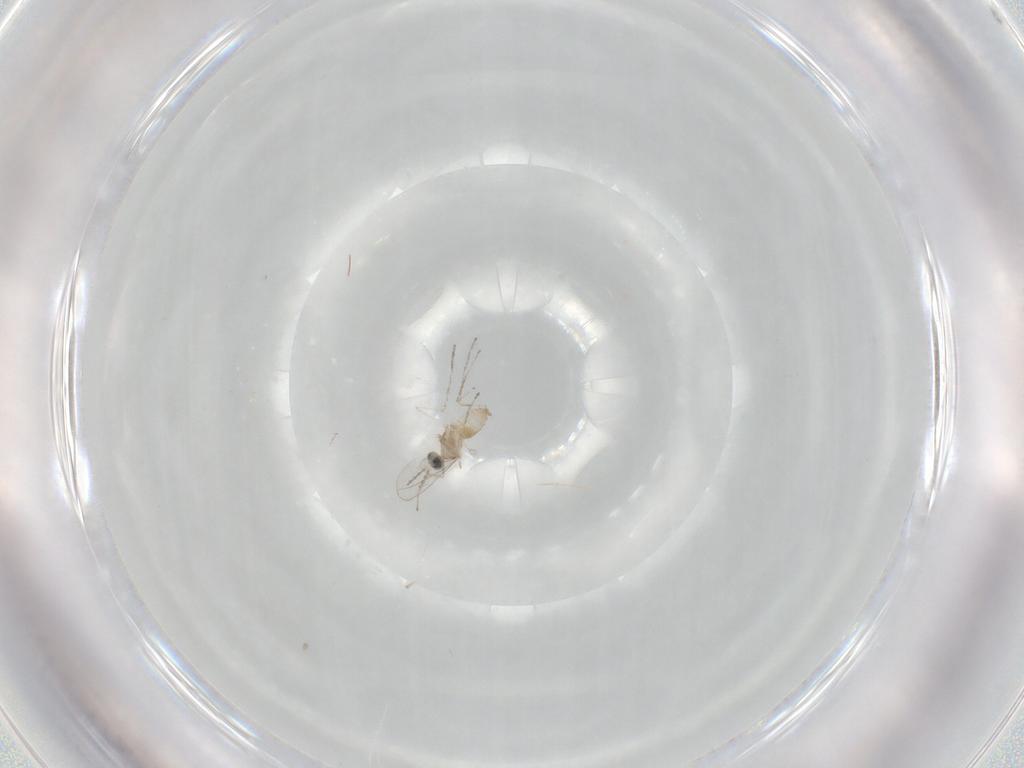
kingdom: Animalia
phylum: Arthropoda
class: Insecta
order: Diptera
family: Cecidomyiidae
